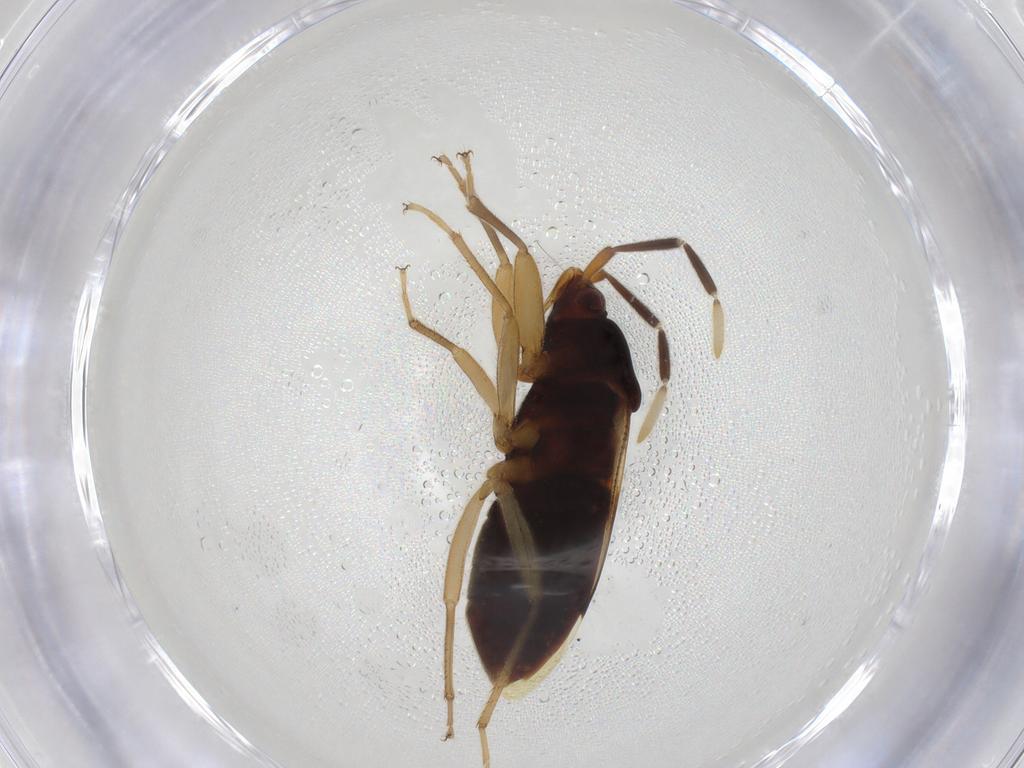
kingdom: Animalia
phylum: Arthropoda
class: Insecta
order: Hemiptera
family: Rhyparochromidae
